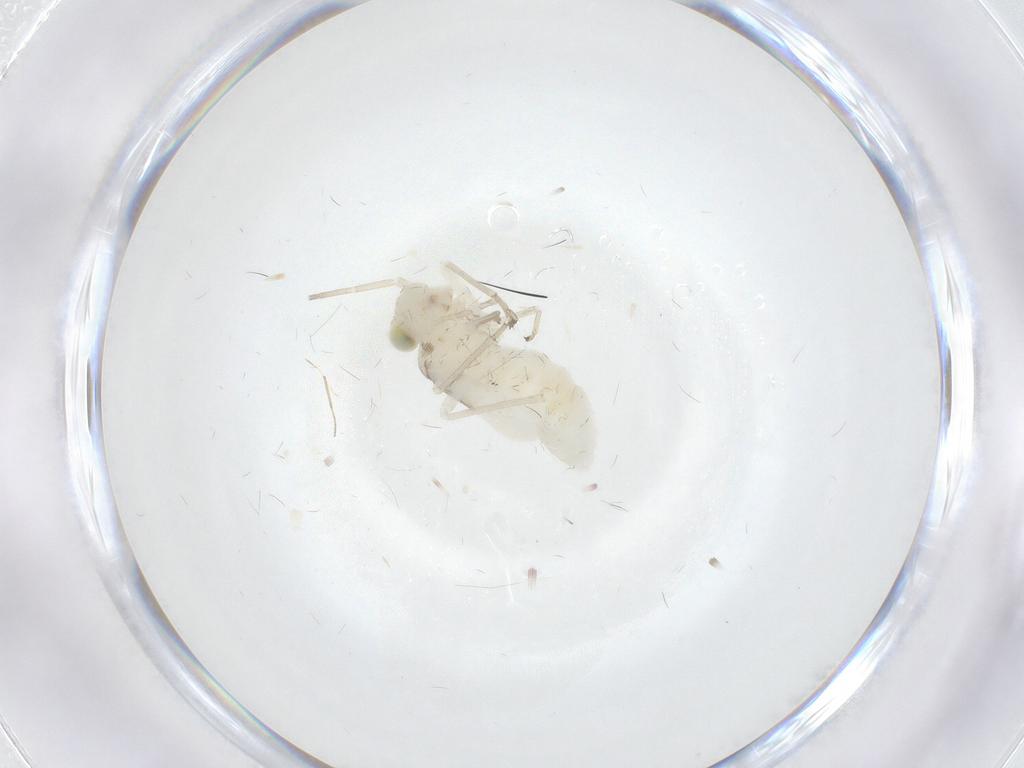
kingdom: Animalia
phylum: Arthropoda
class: Insecta
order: Psocodea
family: Caeciliusidae
